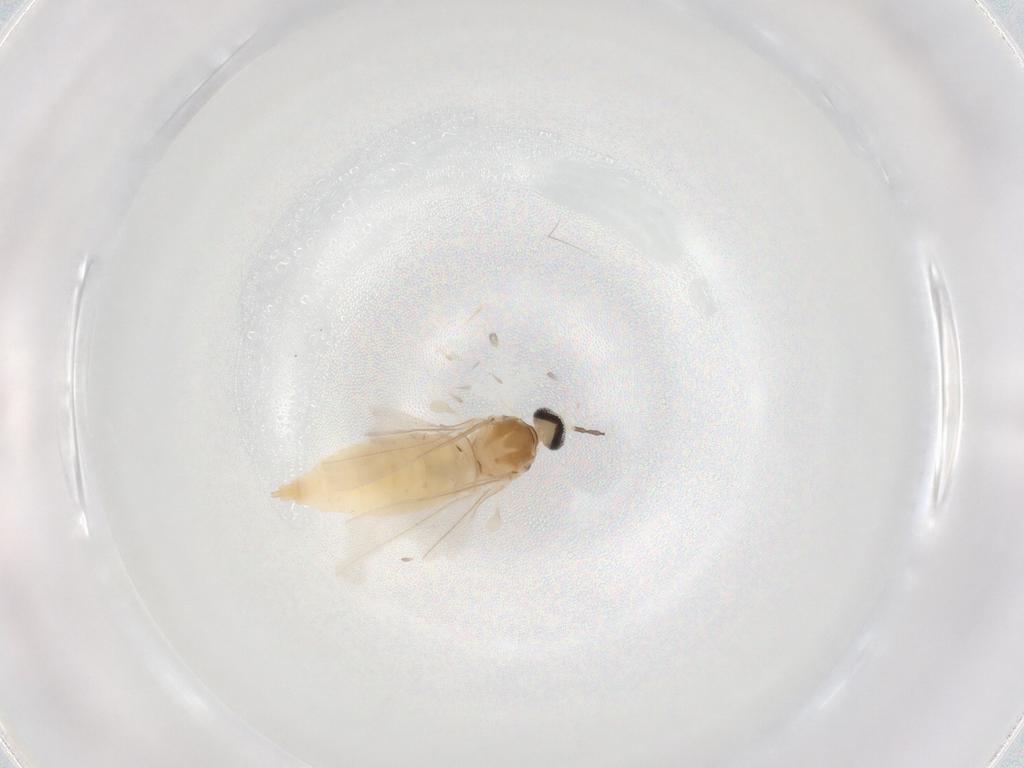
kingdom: Animalia
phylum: Arthropoda
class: Insecta
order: Diptera
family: Cecidomyiidae
